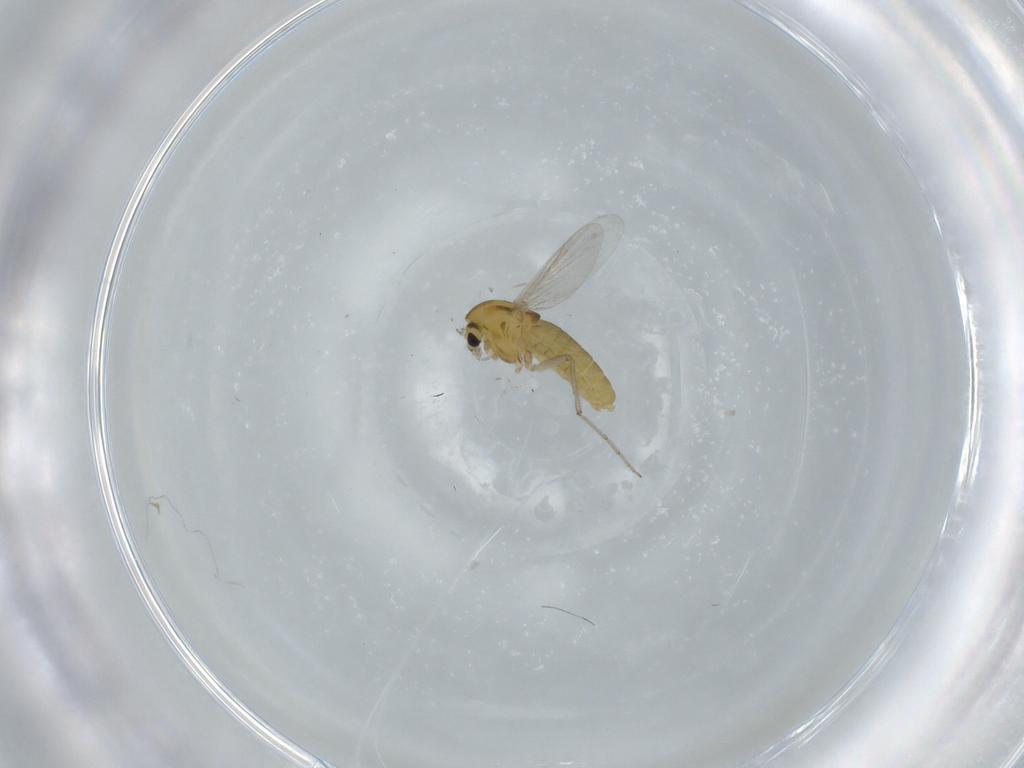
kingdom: Animalia
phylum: Arthropoda
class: Insecta
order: Diptera
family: Chironomidae
